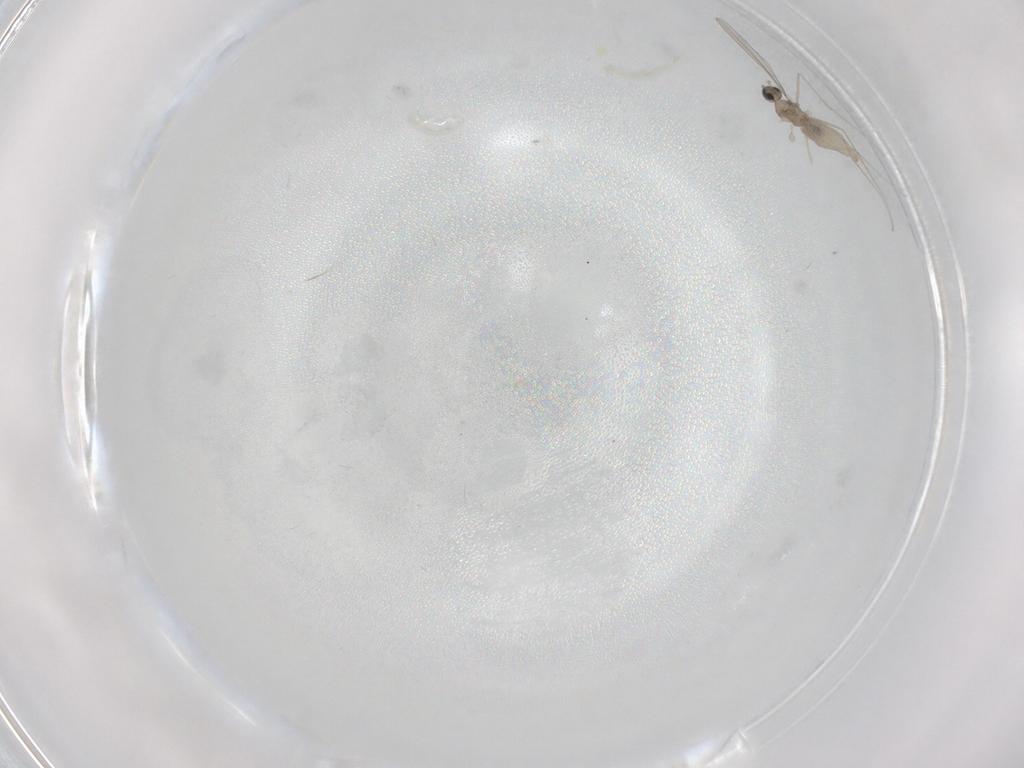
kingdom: Animalia
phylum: Arthropoda
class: Insecta
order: Diptera
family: Cecidomyiidae
